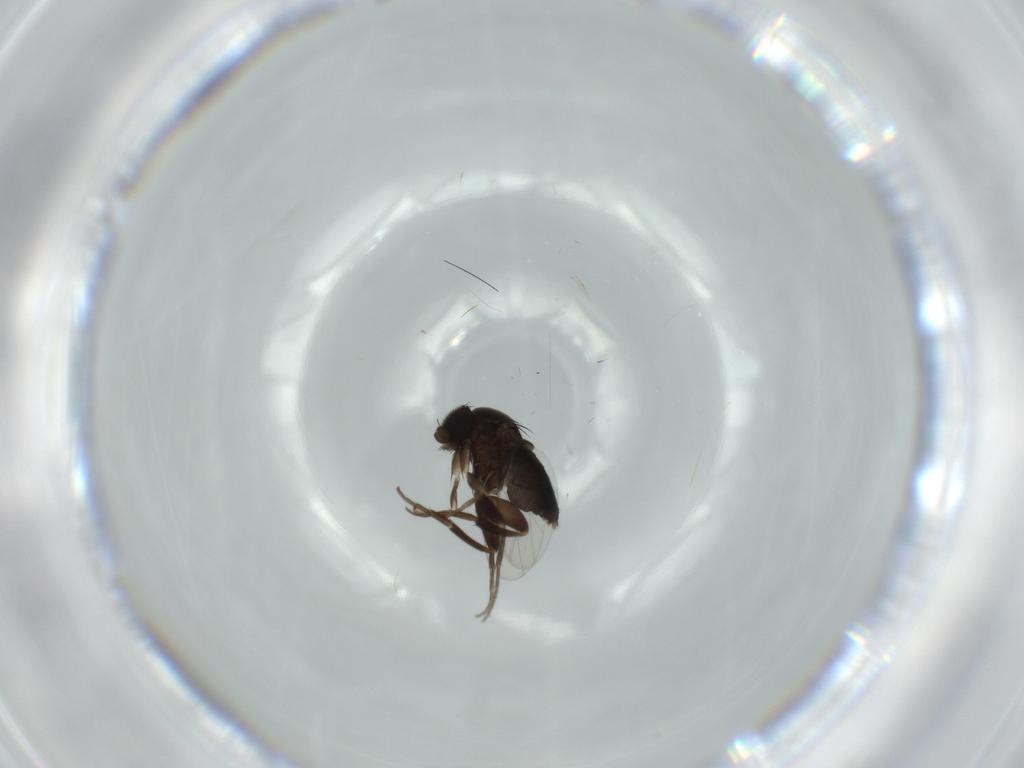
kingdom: Animalia
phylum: Arthropoda
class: Insecta
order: Diptera
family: Phoridae
